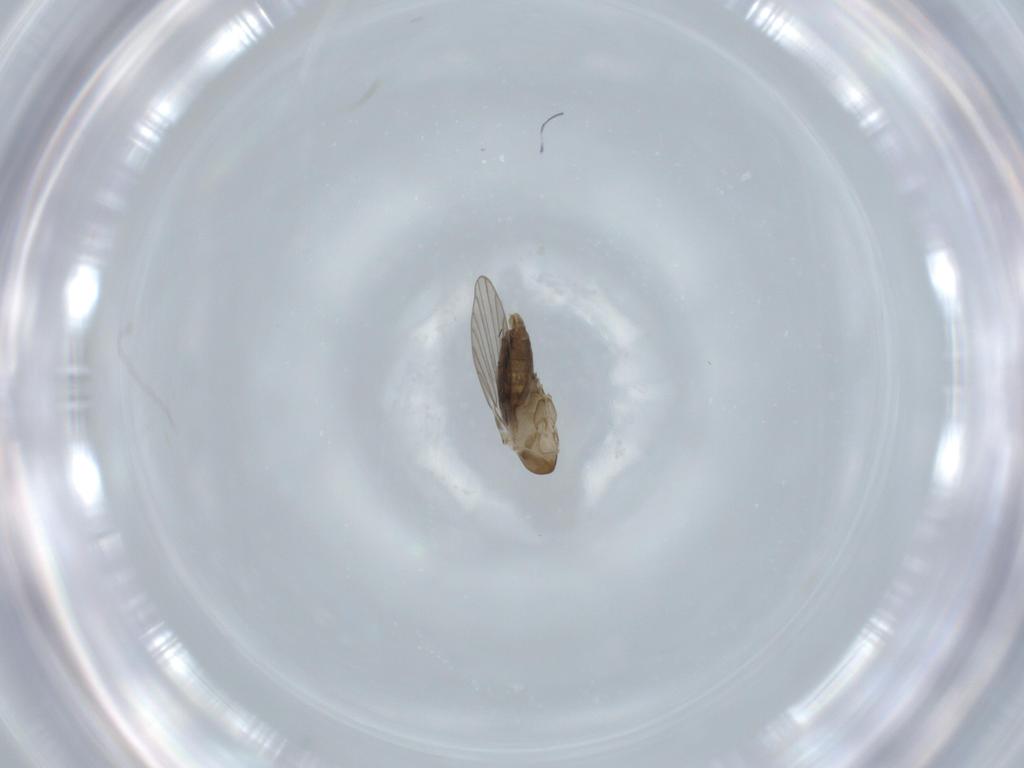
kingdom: Animalia
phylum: Arthropoda
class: Insecta
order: Diptera
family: Psychodidae
